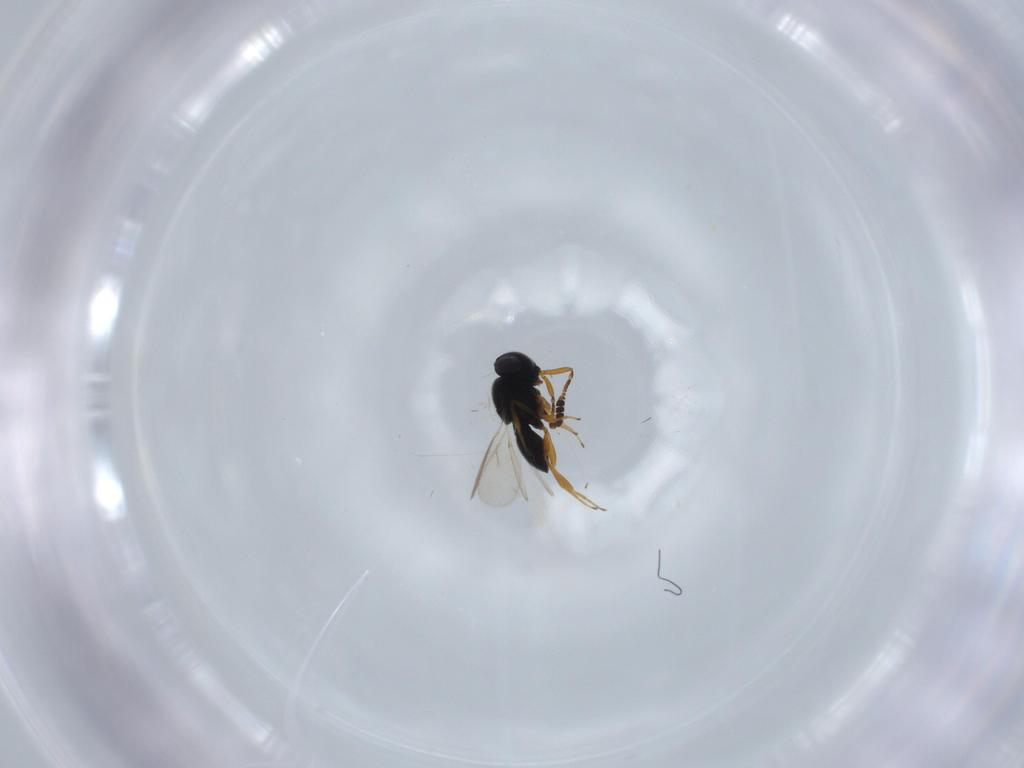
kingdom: Animalia
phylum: Arthropoda
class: Insecta
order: Hymenoptera
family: Scelionidae
